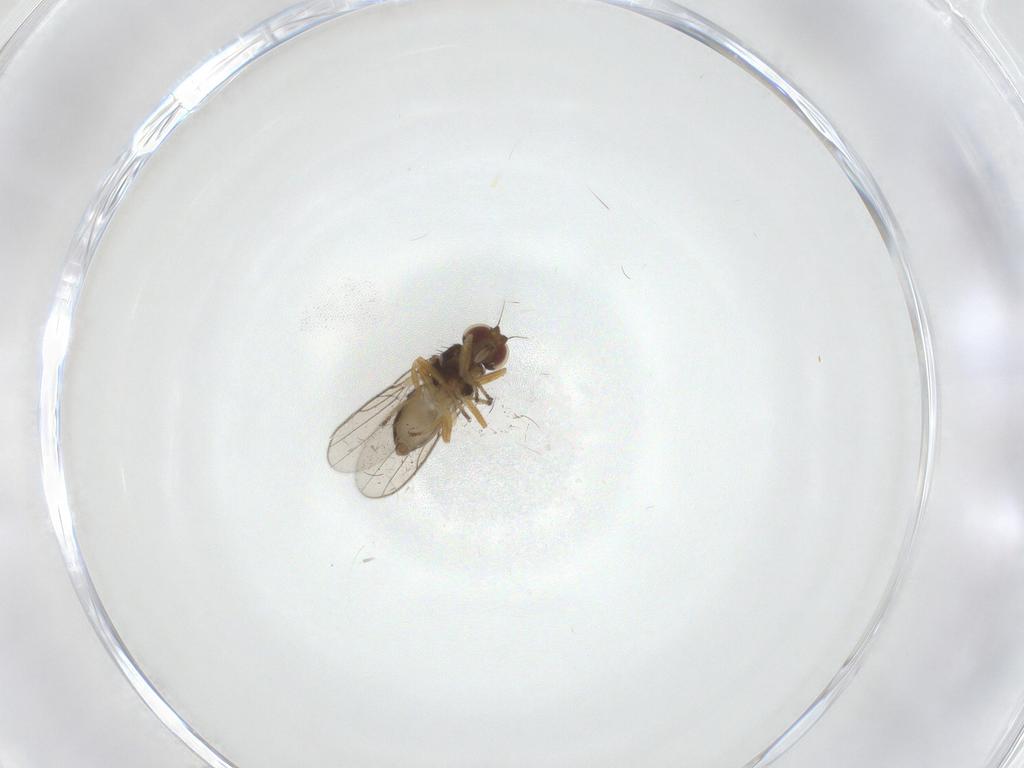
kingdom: Animalia
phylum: Arthropoda
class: Insecta
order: Diptera
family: Chloropidae
